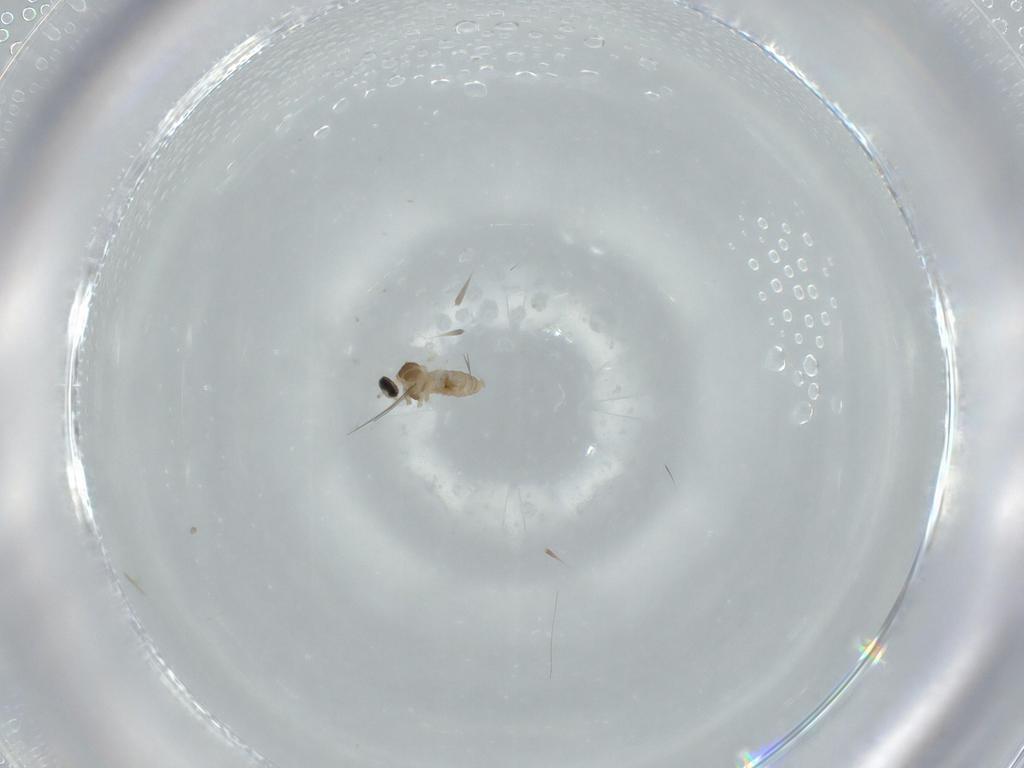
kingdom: Animalia
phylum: Arthropoda
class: Insecta
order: Diptera
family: Cecidomyiidae
